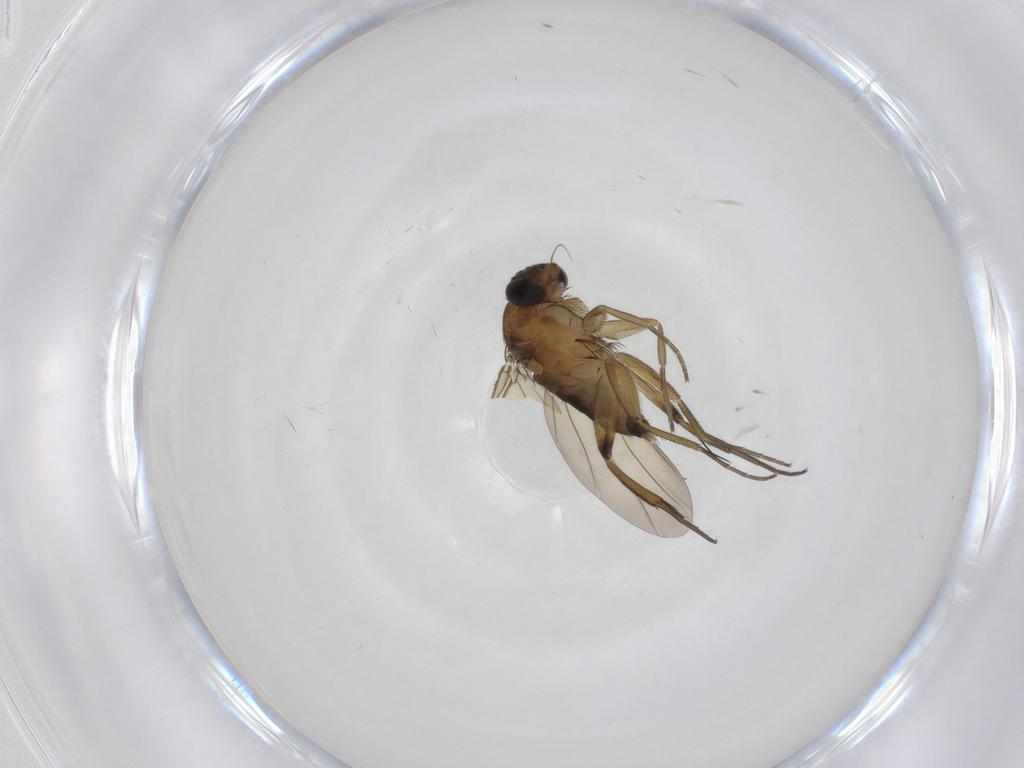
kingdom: Animalia
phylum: Arthropoda
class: Insecta
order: Diptera
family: Phoridae
